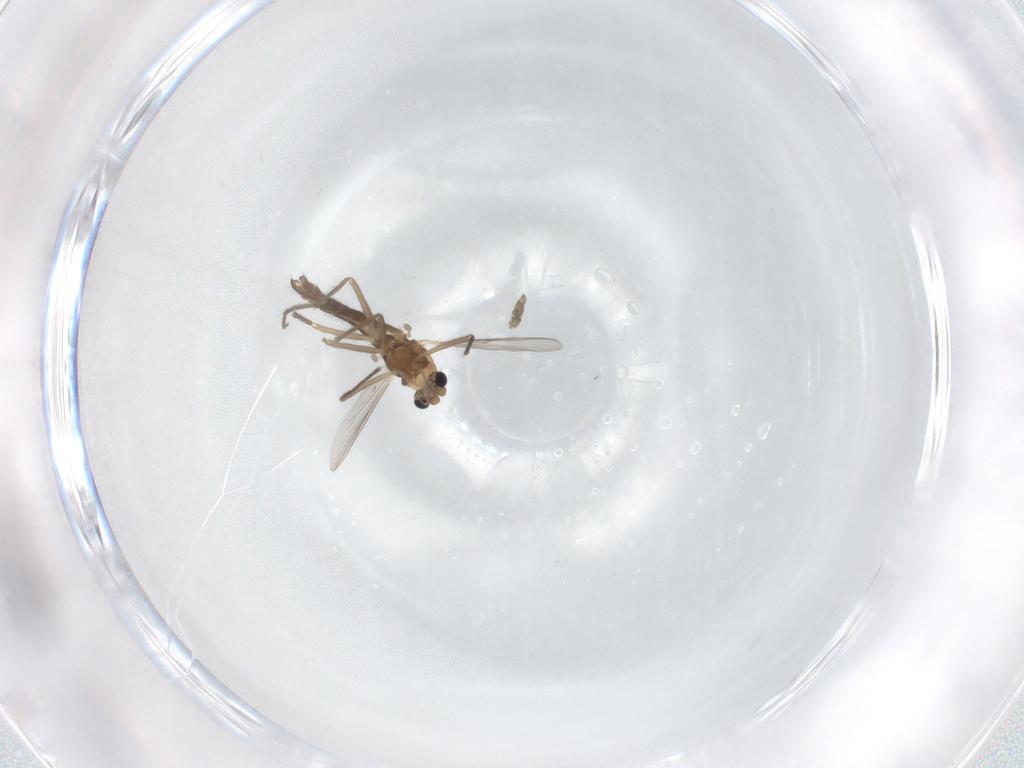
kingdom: Animalia
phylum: Arthropoda
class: Insecta
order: Diptera
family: Chironomidae
